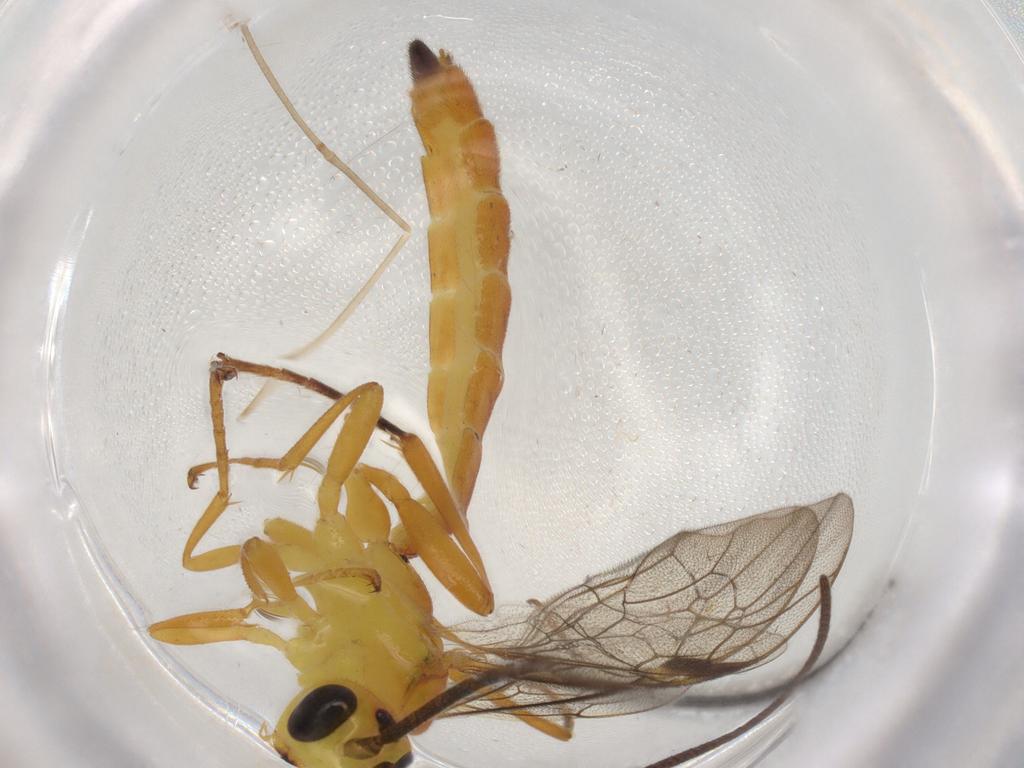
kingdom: Animalia
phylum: Arthropoda
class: Insecta
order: Hymenoptera
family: Ichneumonidae
